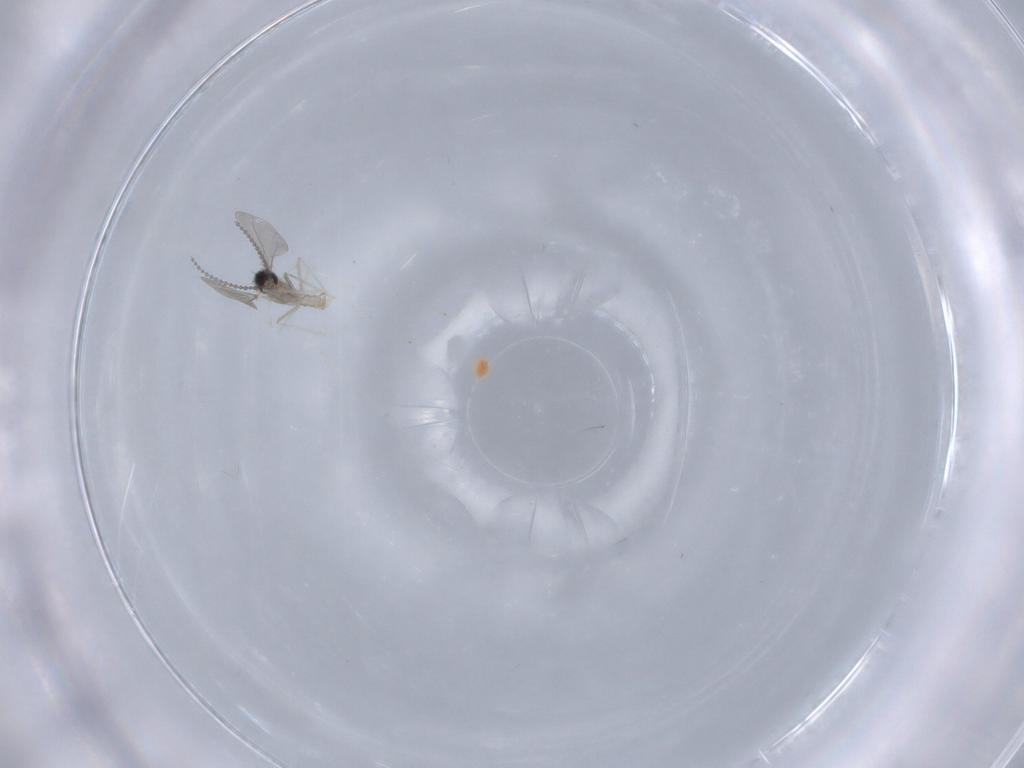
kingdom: Animalia
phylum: Arthropoda
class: Insecta
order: Diptera
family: Cecidomyiidae
